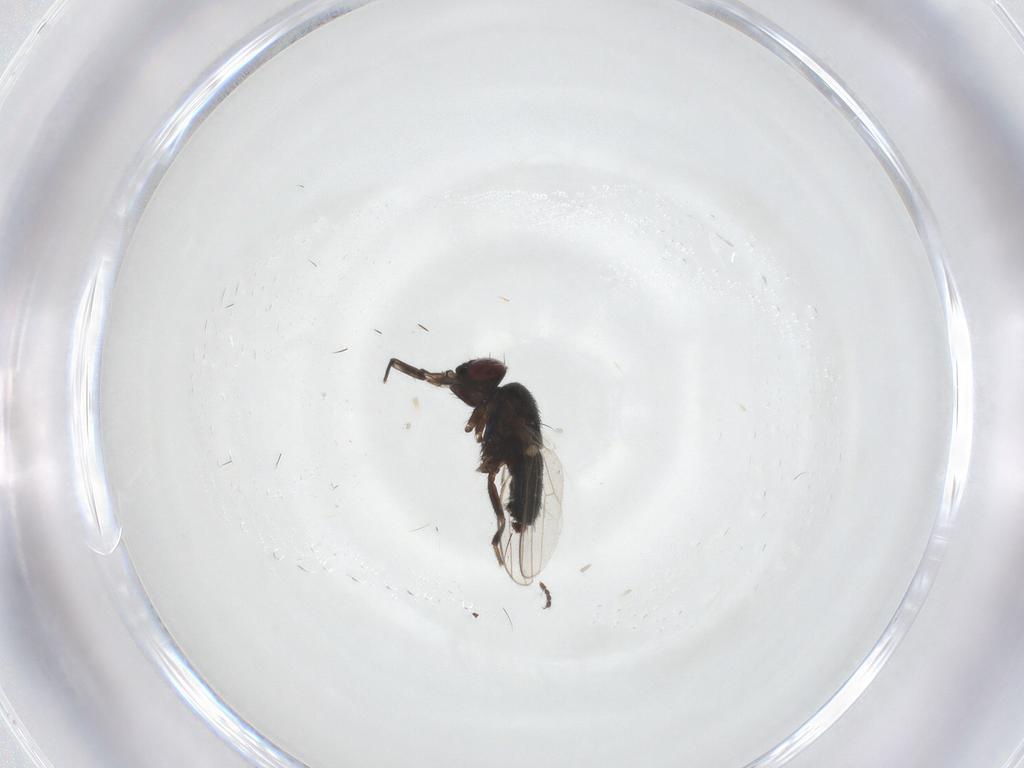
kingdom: Animalia
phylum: Arthropoda
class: Insecta
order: Diptera
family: Milichiidae
